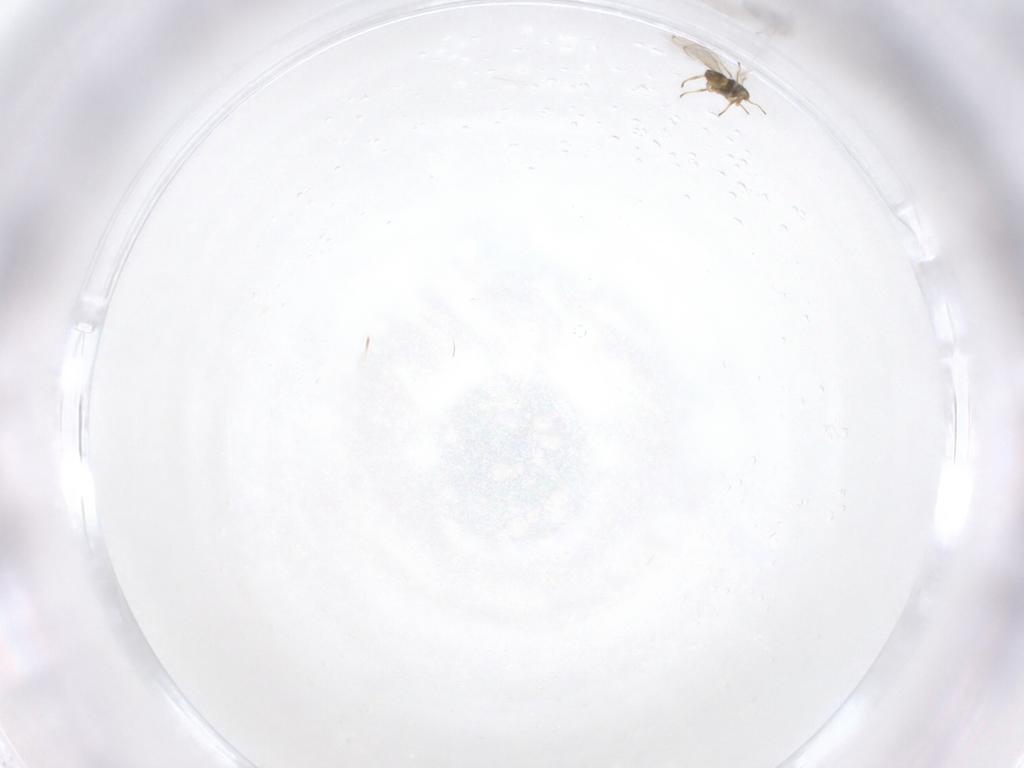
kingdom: Animalia
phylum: Arthropoda
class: Insecta
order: Hymenoptera
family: Eulophidae
